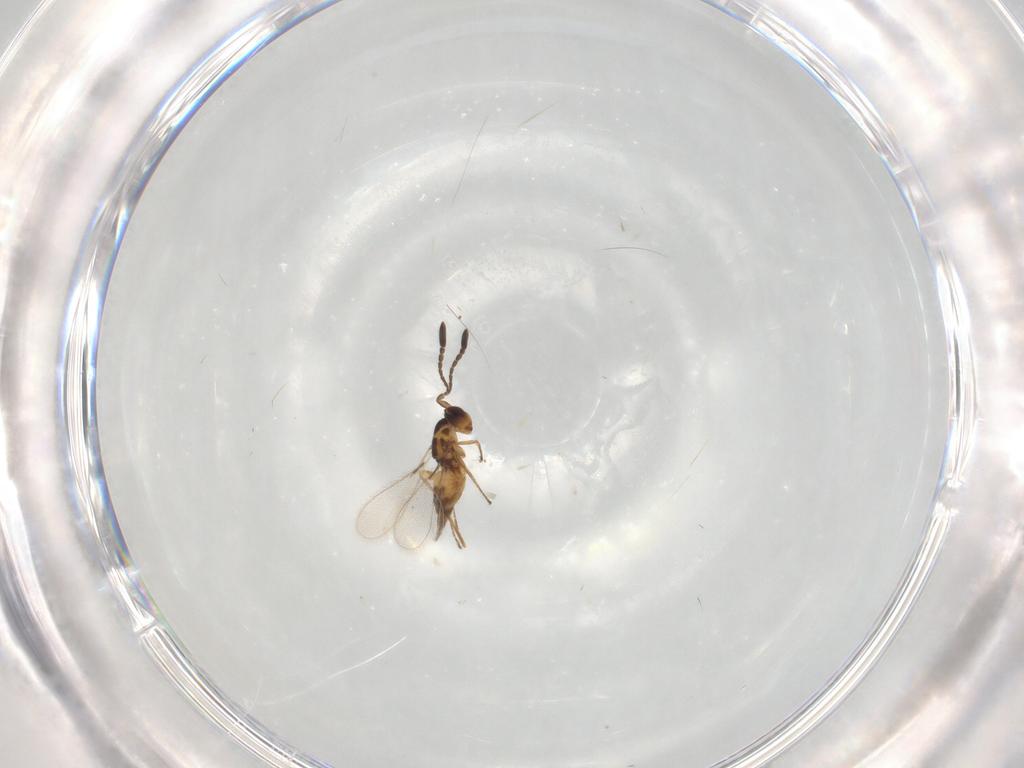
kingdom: Animalia
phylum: Arthropoda
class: Insecta
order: Hymenoptera
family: Mymaridae
